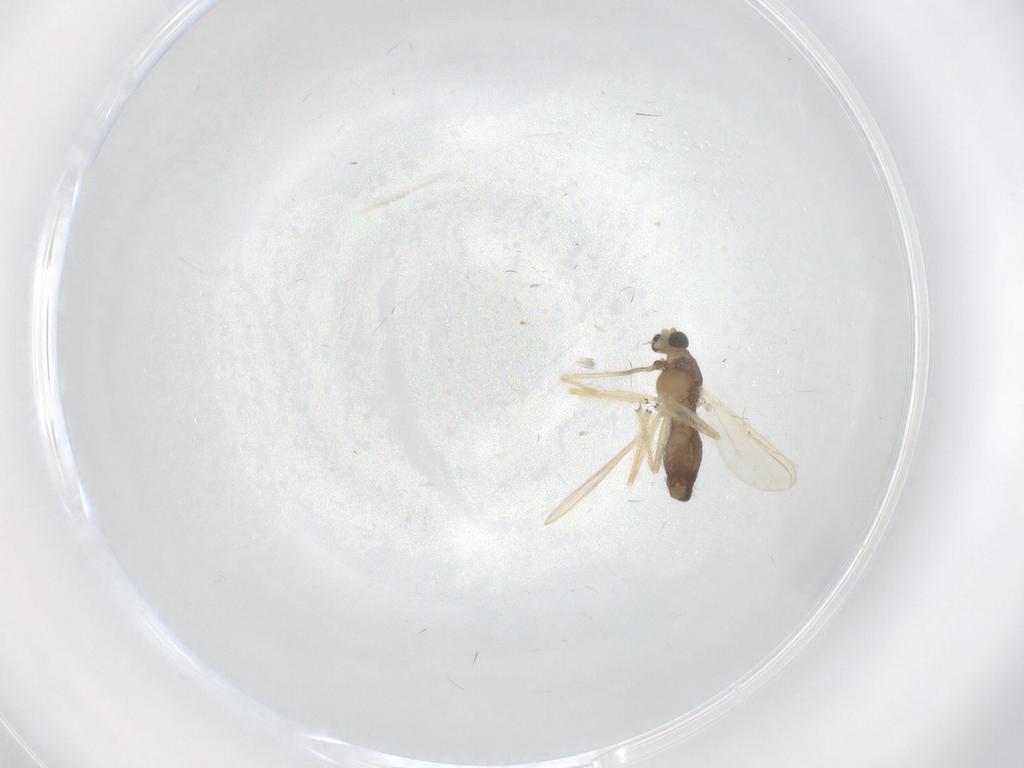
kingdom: Animalia
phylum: Arthropoda
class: Insecta
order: Diptera
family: Chironomidae
